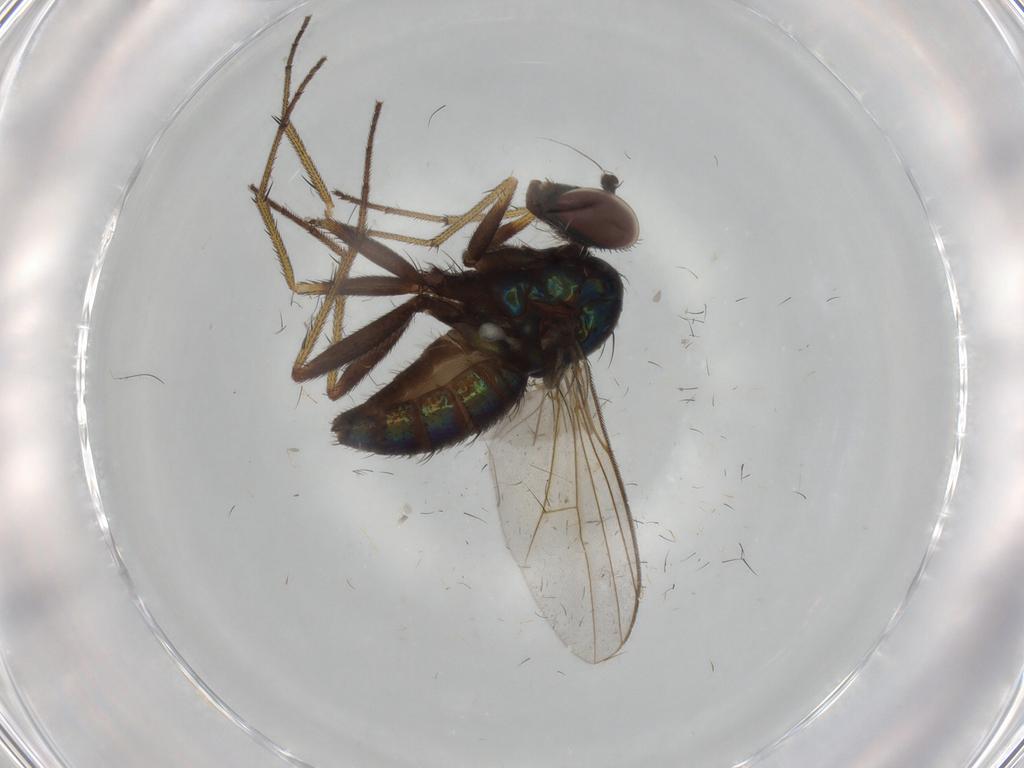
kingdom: Animalia
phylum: Arthropoda
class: Insecta
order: Diptera
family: Dolichopodidae
